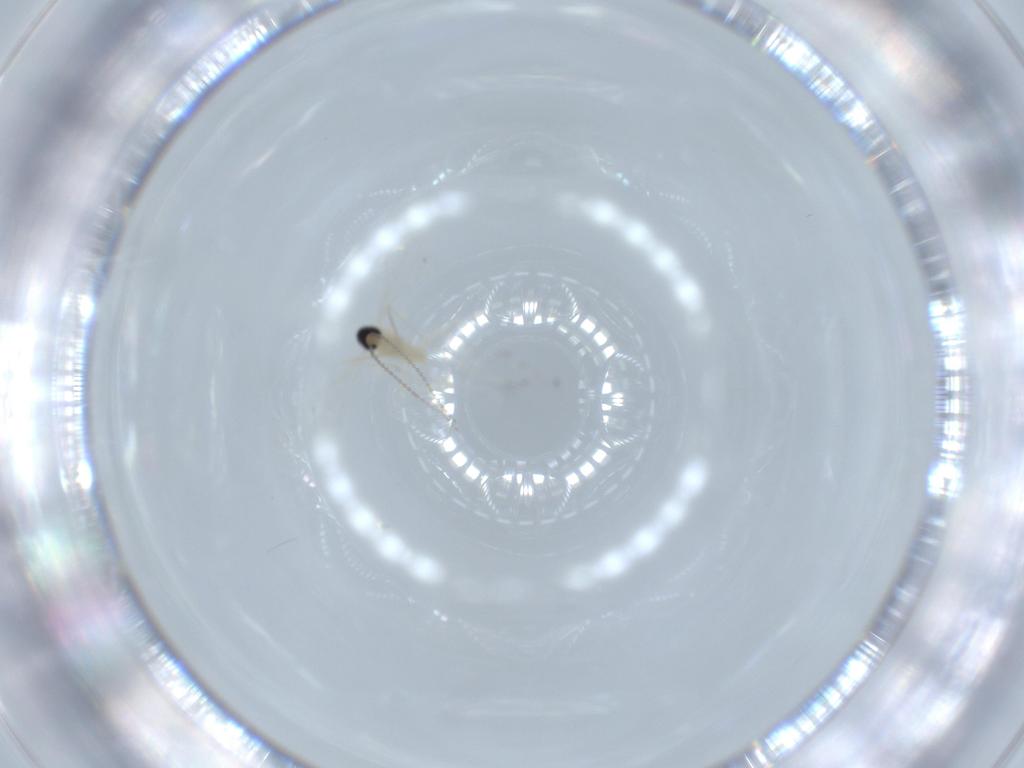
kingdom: Animalia
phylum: Arthropoda
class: Insecta
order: Diptera
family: Cecidomyiidae
